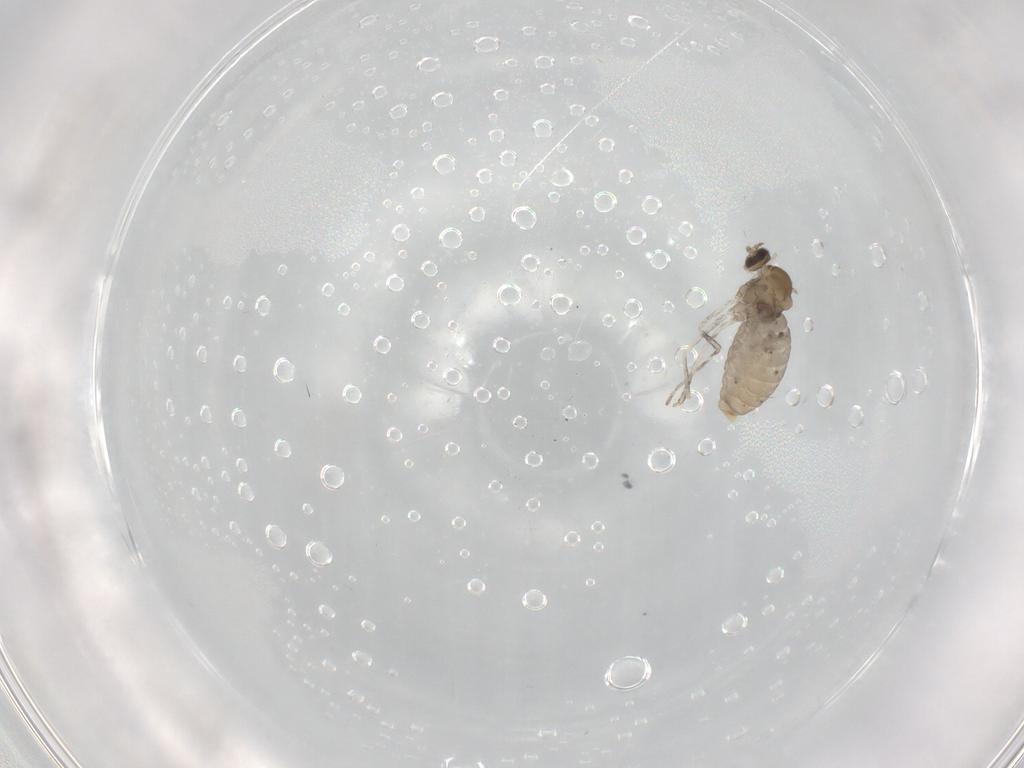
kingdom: Animalia
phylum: Arthropoda
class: Insecta
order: Diptera
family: Cecidomyiidae
